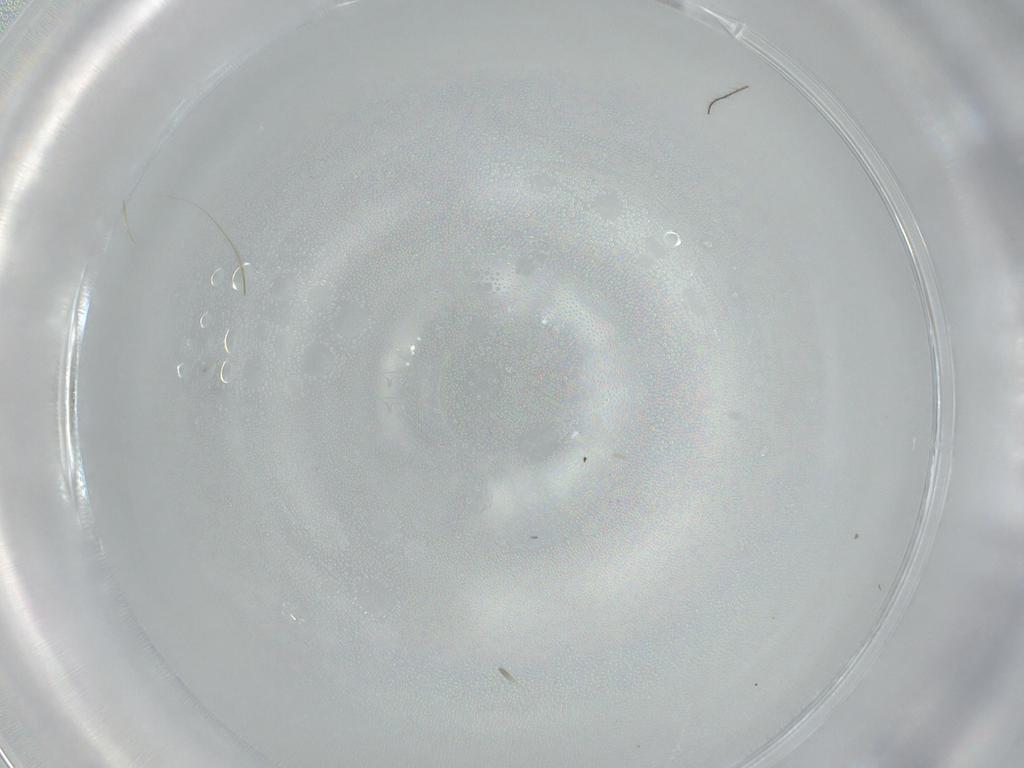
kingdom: Animalia
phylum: Arthropoda
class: Insecta
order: Diptera
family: Cecidomyiidae
